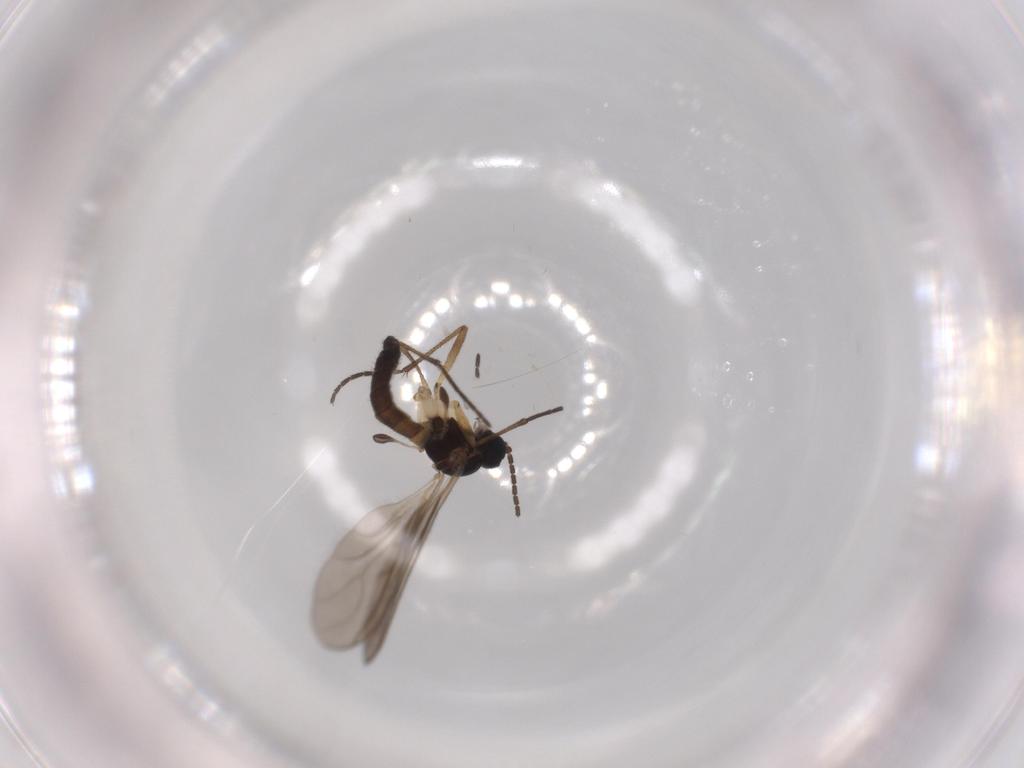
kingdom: Animalia
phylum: Arthropoda
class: Insecta
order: Diptera
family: Sciaridae
